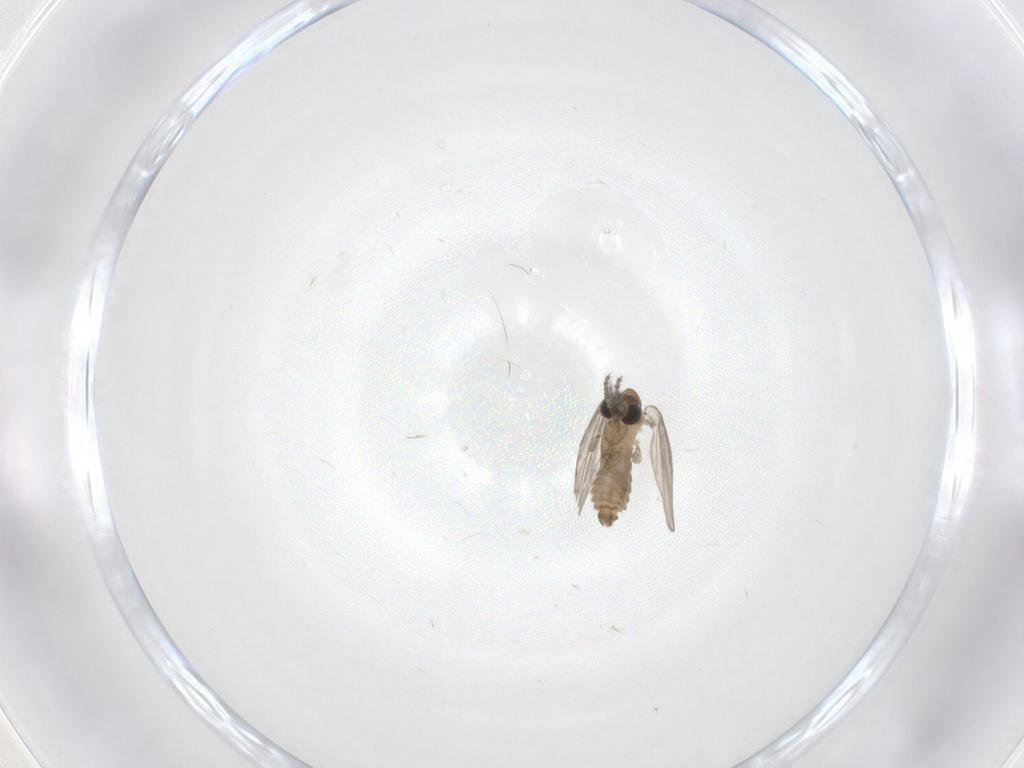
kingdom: Animalia
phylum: Arthropoda
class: Insecta
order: Diptera
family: Psychodidae
